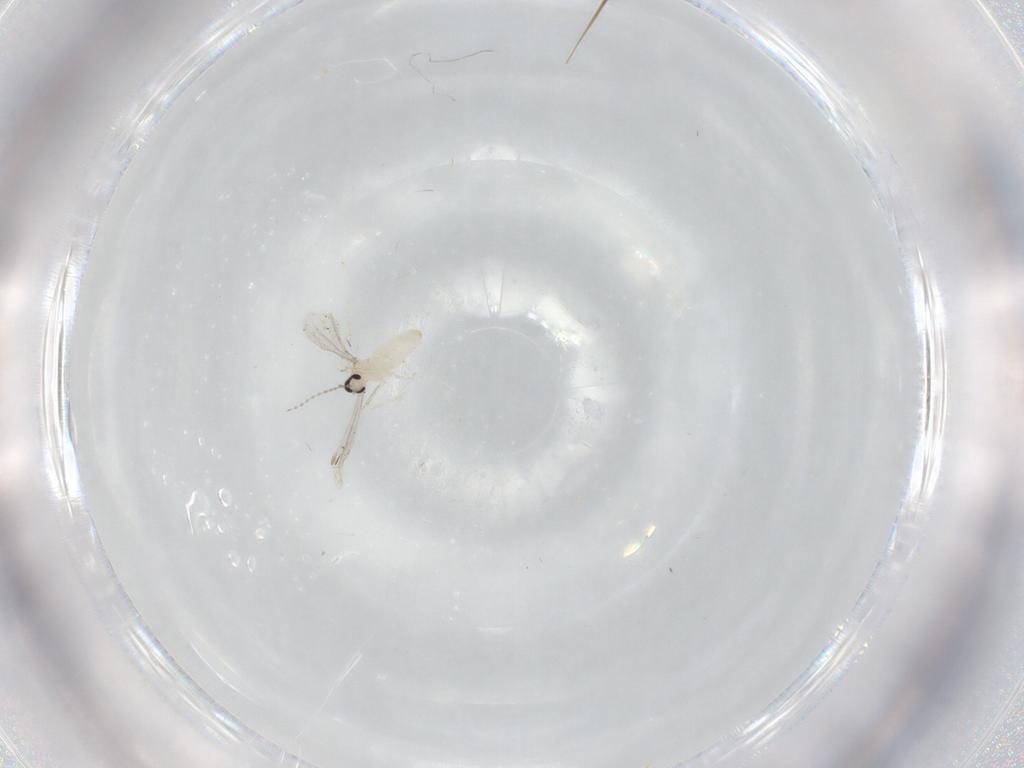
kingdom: Animalia
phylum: Arthropoda
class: Insecta
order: Diptera
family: Cecidomyiidae
